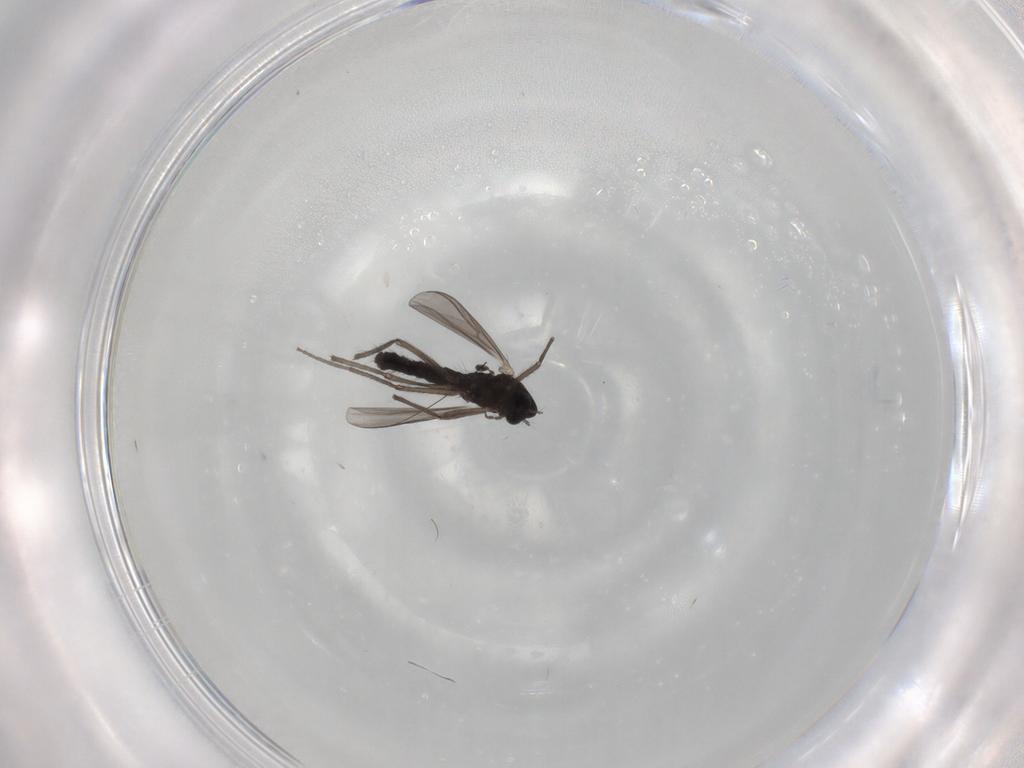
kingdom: Animalia
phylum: Arthropoda
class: Insecta
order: Diptera
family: Chironomidae
